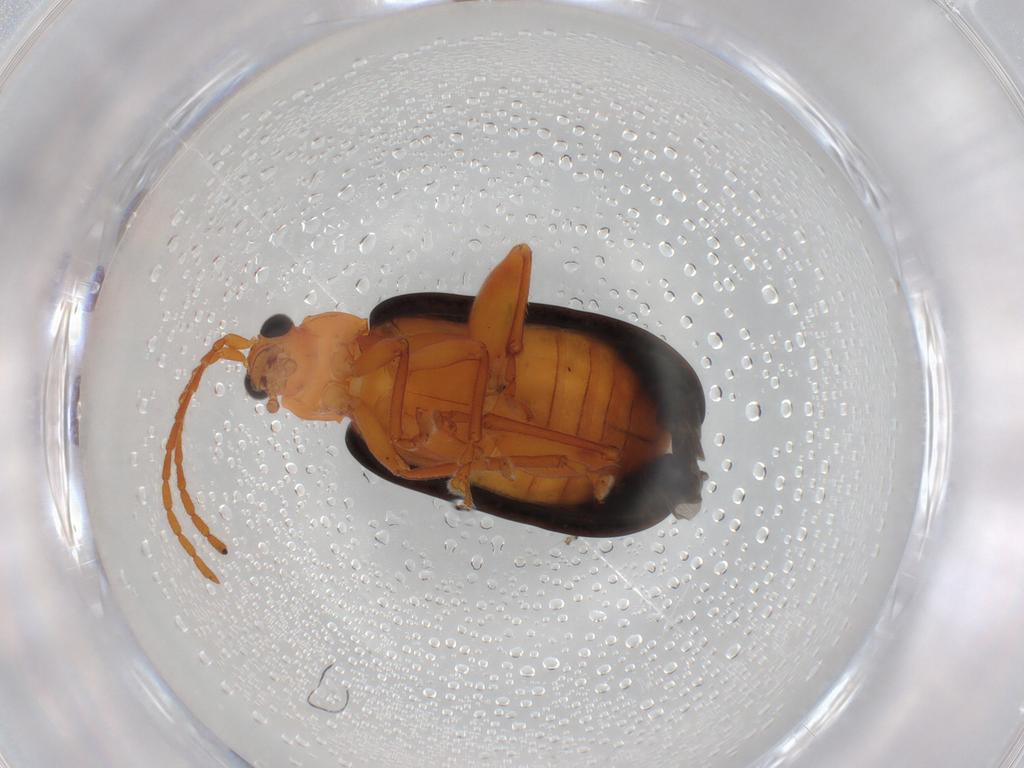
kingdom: Animalia
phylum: Arthropoda
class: Insecta
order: Coleoptera
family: Chrysomelidae
